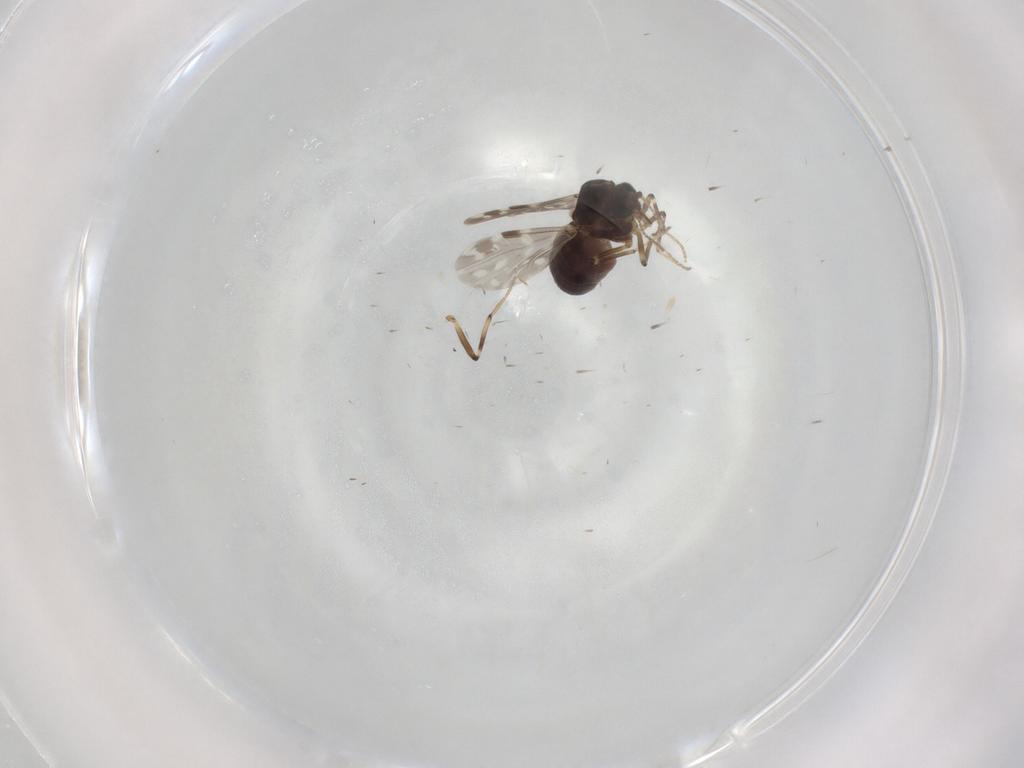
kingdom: Animalia
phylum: Arthropoda
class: Insecta
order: Diptera
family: Ceratopogonidae
